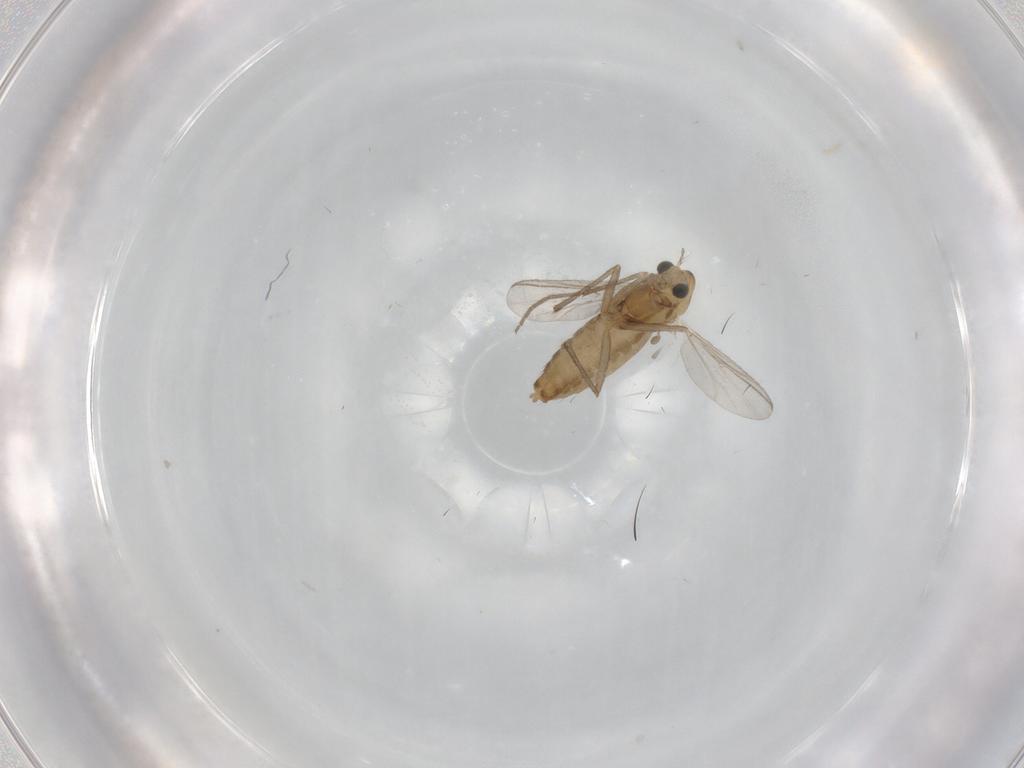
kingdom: Animalia
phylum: Arthropoda
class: Insecta
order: Diptera
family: Chironomidae
